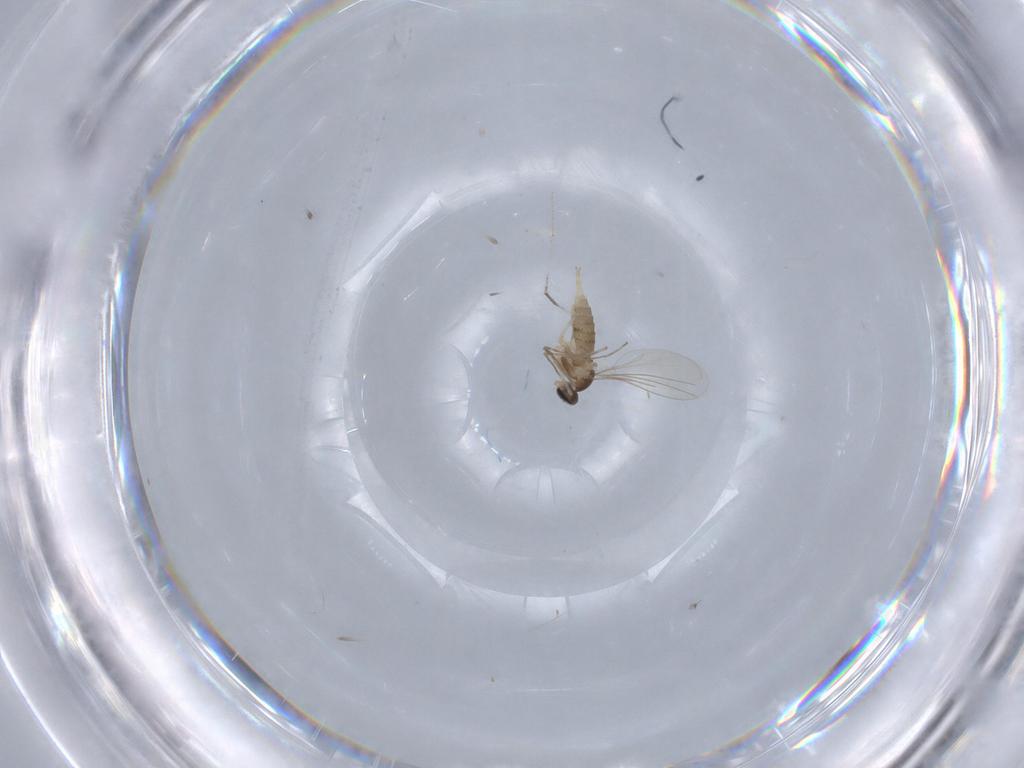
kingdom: Animalia
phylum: Arthropoda
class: Insecta
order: Diptera
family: Cecidomyiidae
